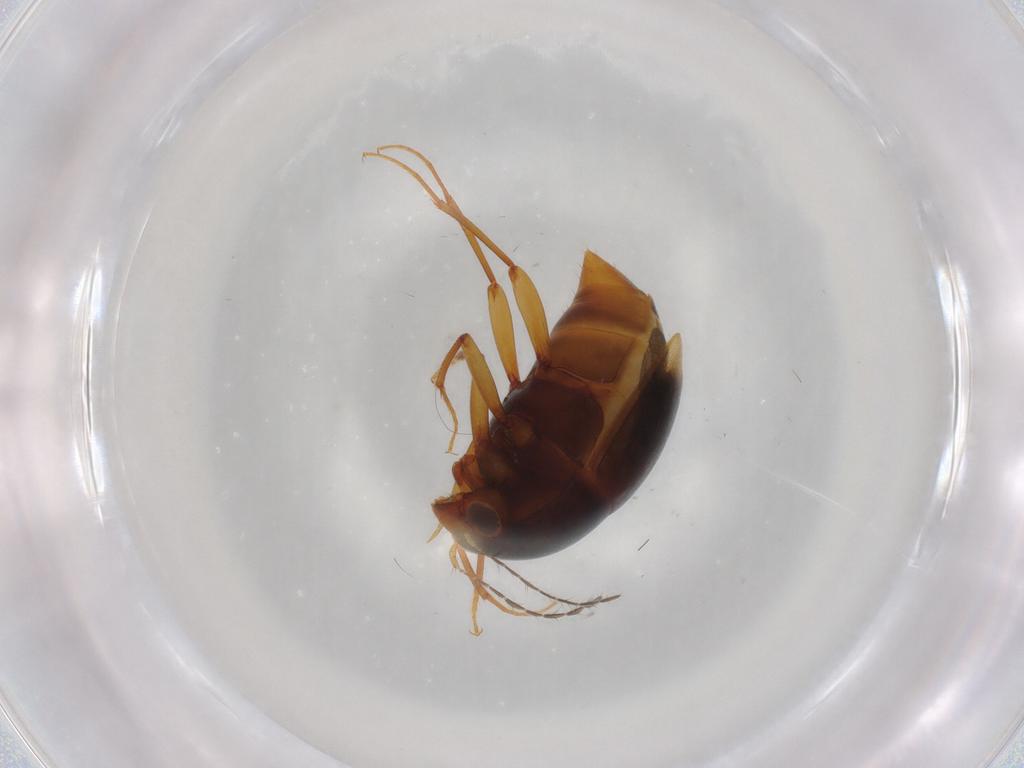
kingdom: Animalia
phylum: Arthropoda
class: Insecta
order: Coleoptera
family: Staphylinidae
